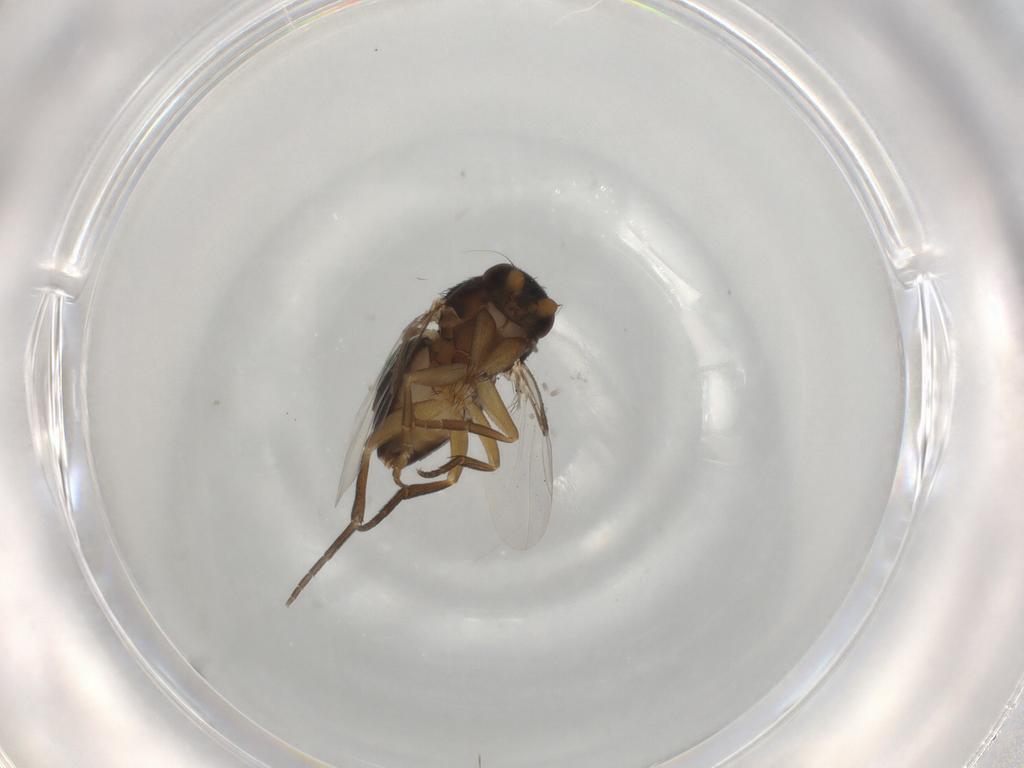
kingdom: Animalia
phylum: Arthropoda
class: Insecta
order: Diptera
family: Phoridae
